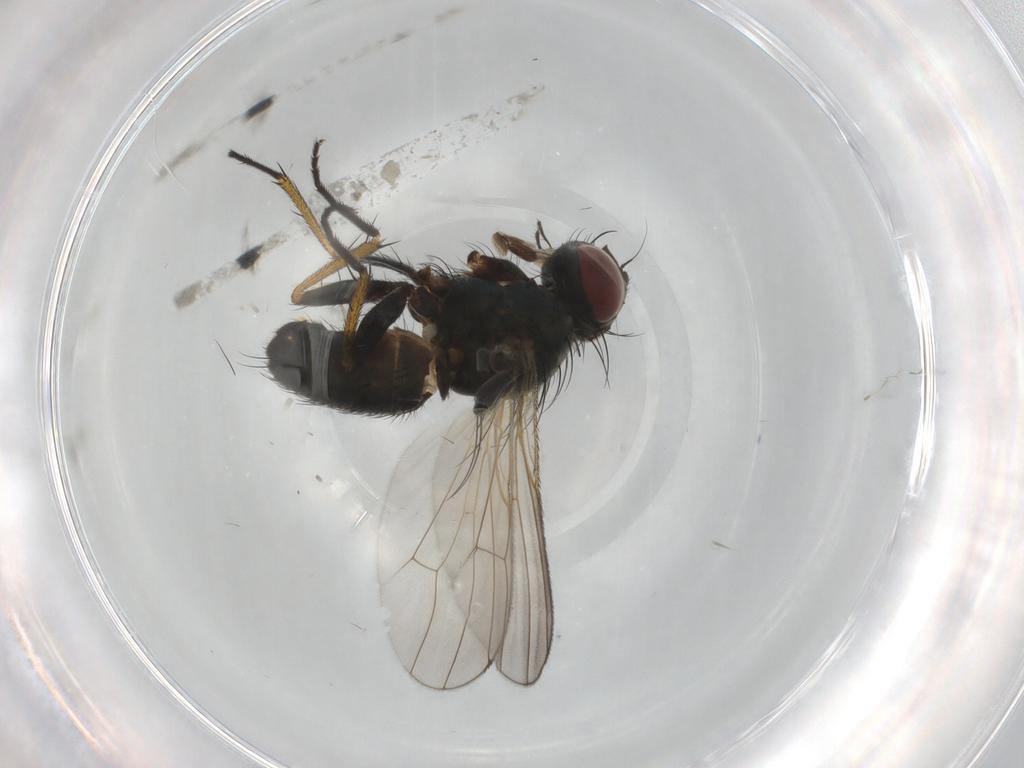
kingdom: Animalia
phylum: Arthropoda
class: Insecta
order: Diptera
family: Muscidae
